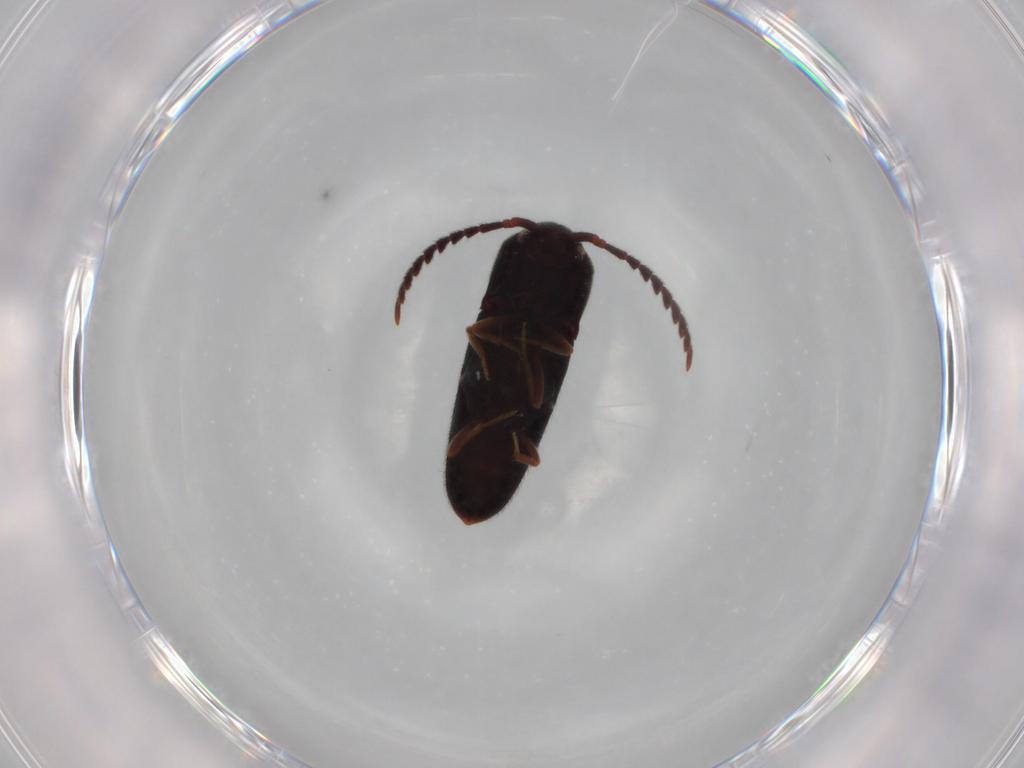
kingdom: Animalia
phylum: Arthropoda
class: Insecta
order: Coleoptera
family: Eucnemidae
